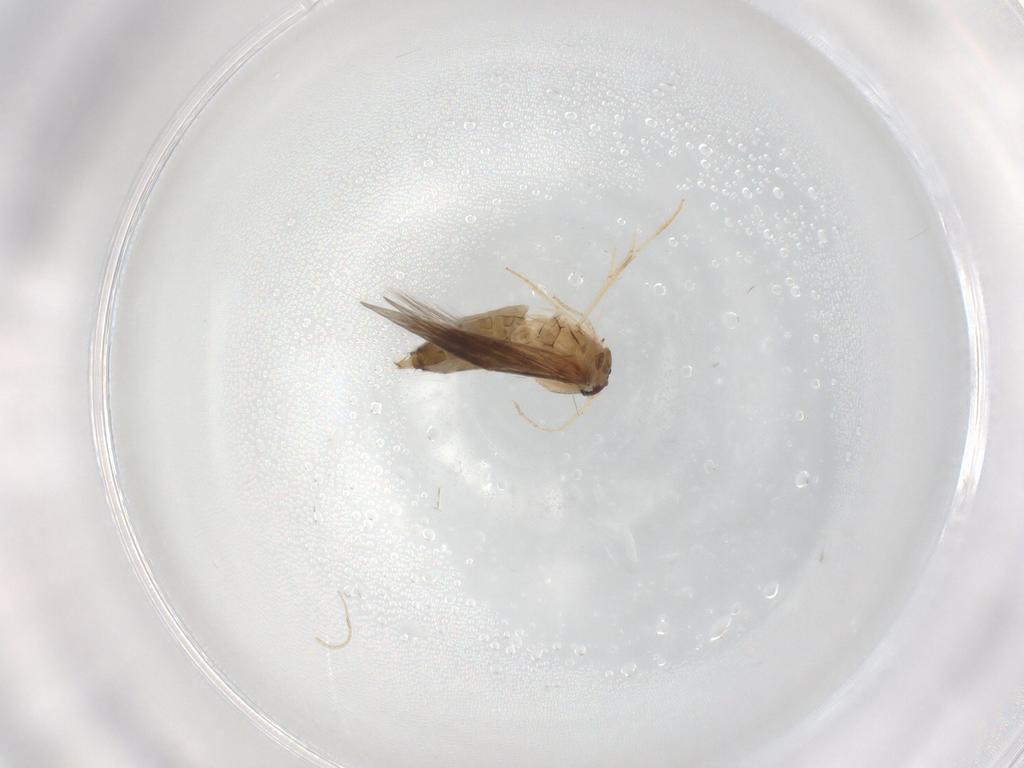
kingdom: Animalia
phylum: Arthropoda
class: Insecta
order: Trichoptera
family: Hydroptilidae
